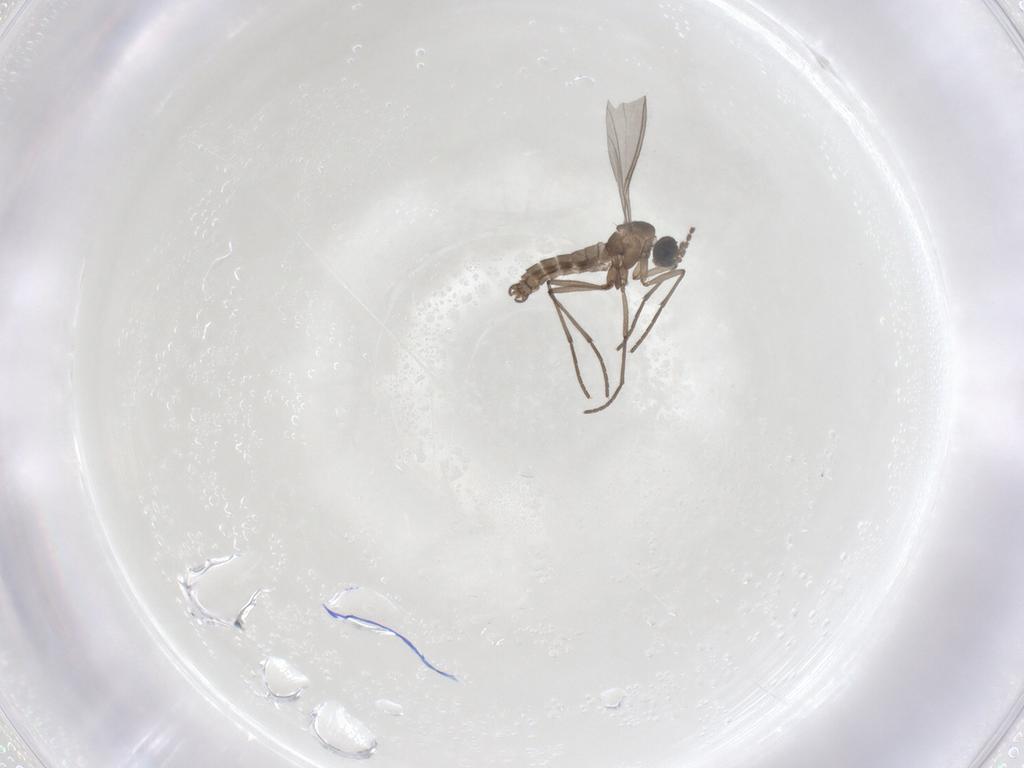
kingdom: Animalia
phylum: Arthropoda
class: Insecta
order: Diptera
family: Sciaridae
